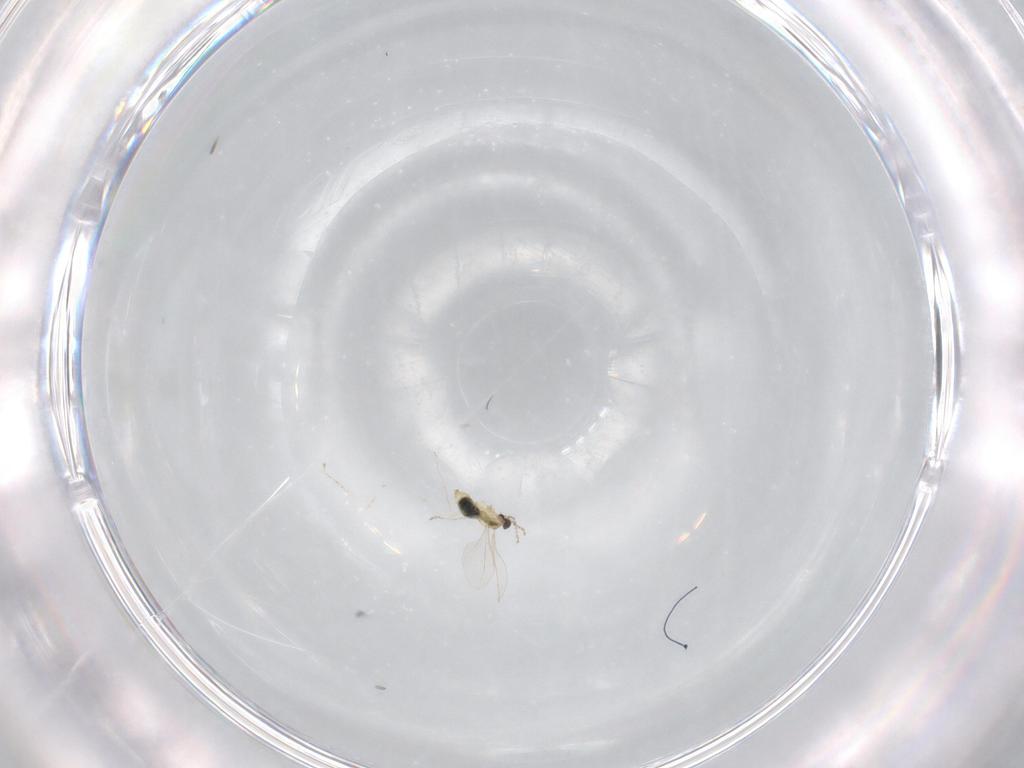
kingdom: Animalia
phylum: Arthropoda
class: Insecta
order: Diptera
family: Cecidomyiidae
